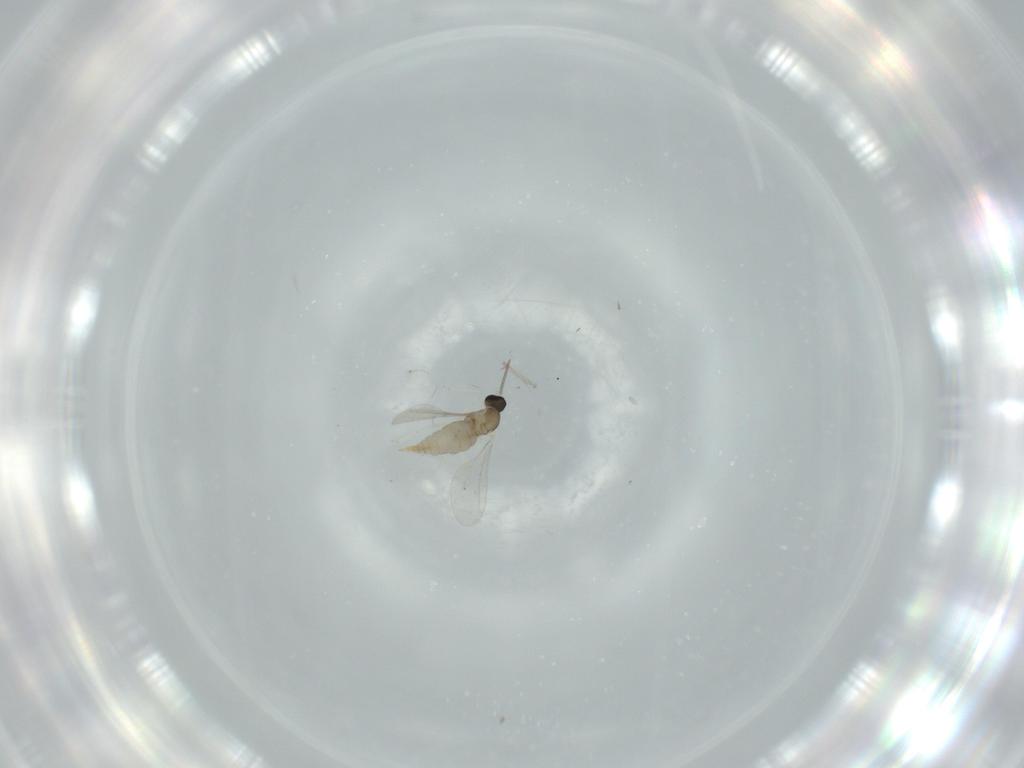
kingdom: Animalia
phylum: Arthropoda
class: Insecta
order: Diptera
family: Cecidomyiidae
